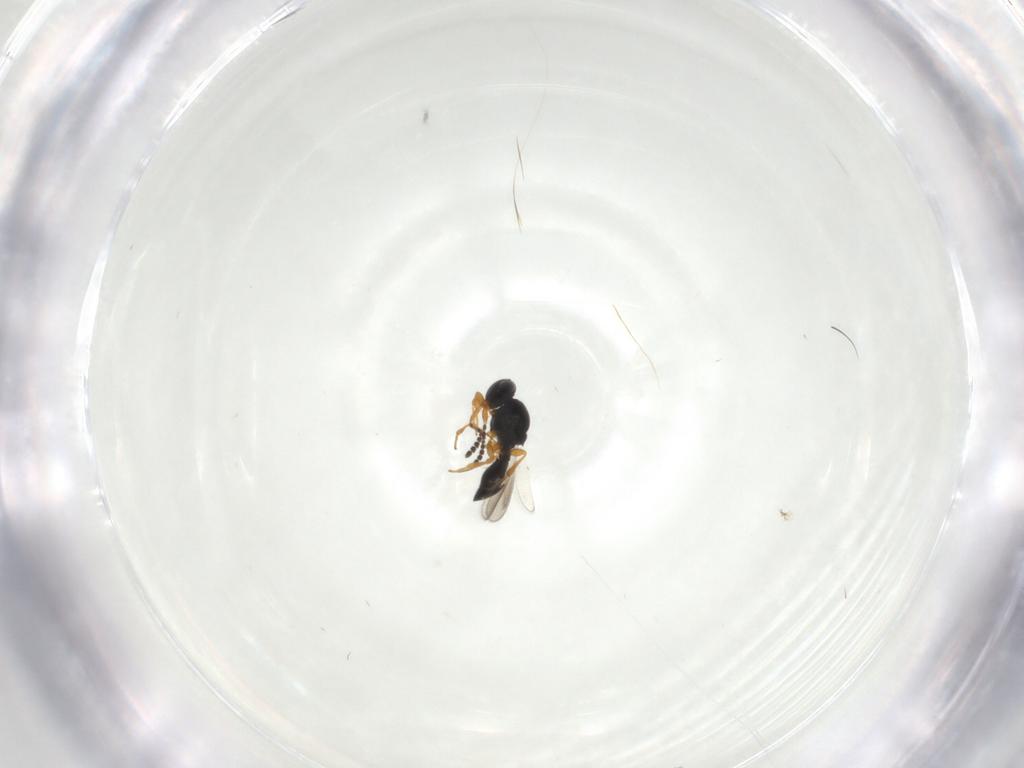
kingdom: Animalia
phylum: Arthropoda
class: Insecta
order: Hymenoptera
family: Platygastridae
